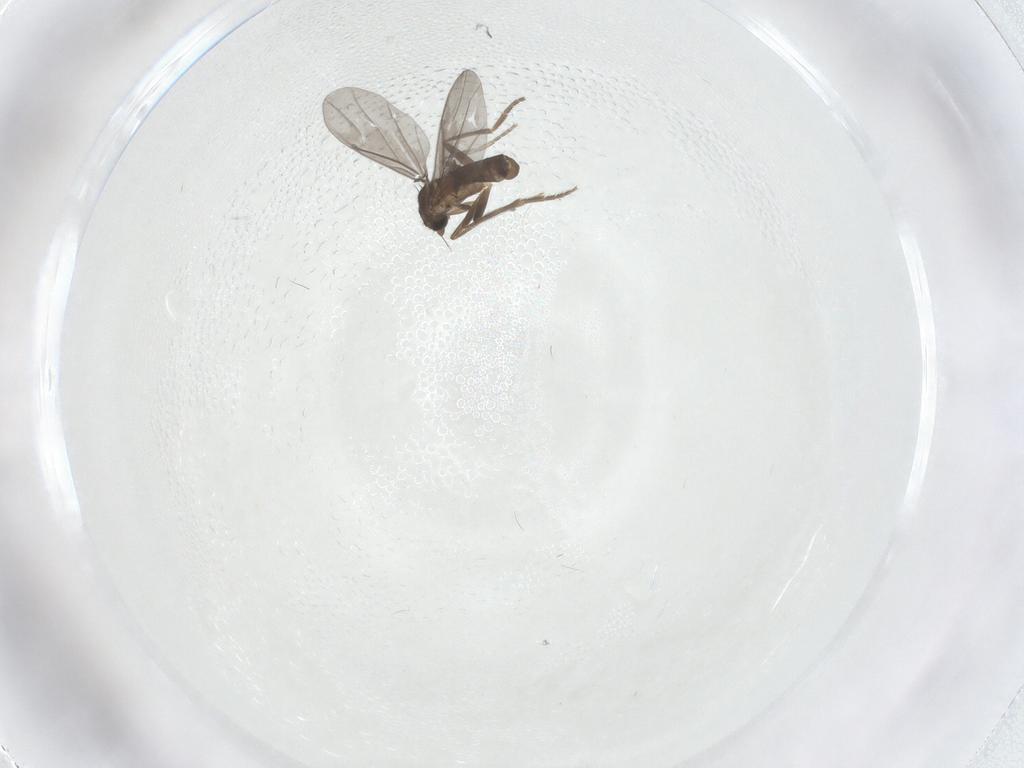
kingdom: Animalia
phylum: Arthropoda
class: Insecta
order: Diptera
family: Phoridae
